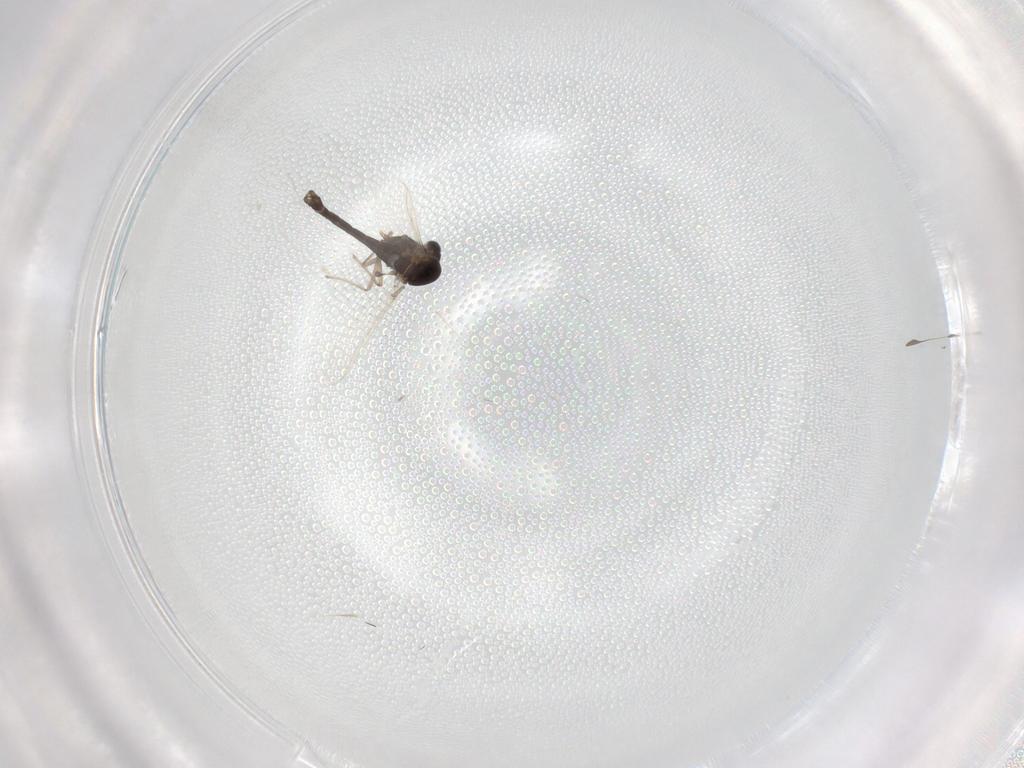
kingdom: Animalia
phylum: Arthropoda
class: Insecta
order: Diptera
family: Chironomidae
